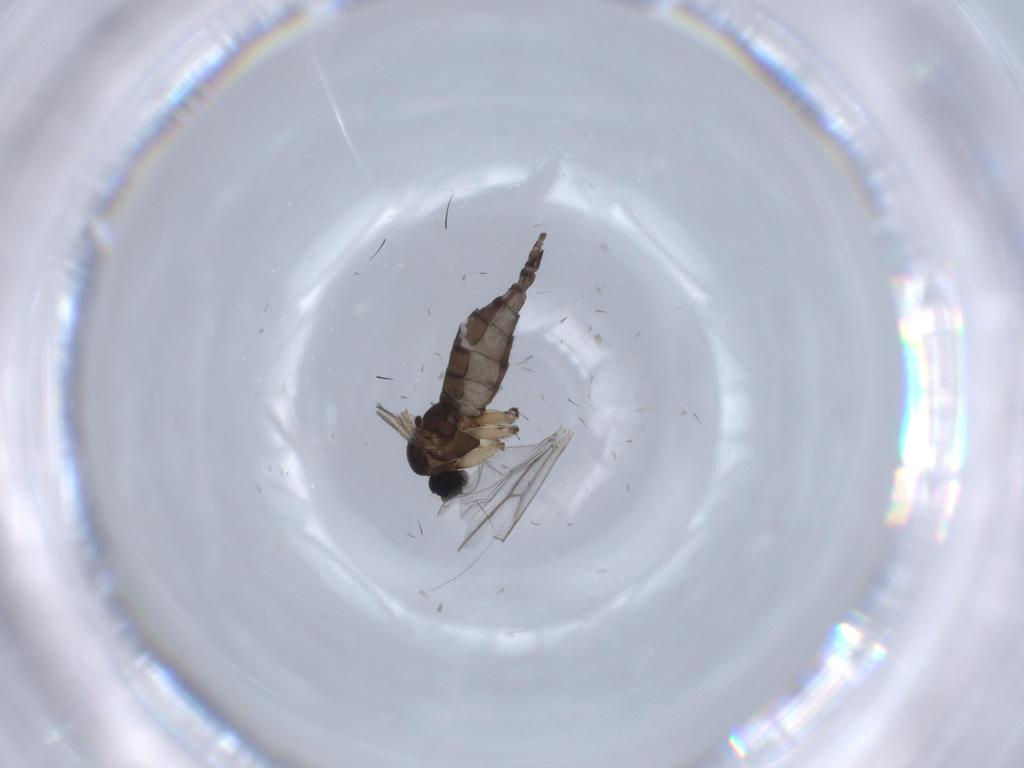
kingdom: Animalia
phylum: Arthropoda
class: Insecta
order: Diptera
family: Sciaridae
